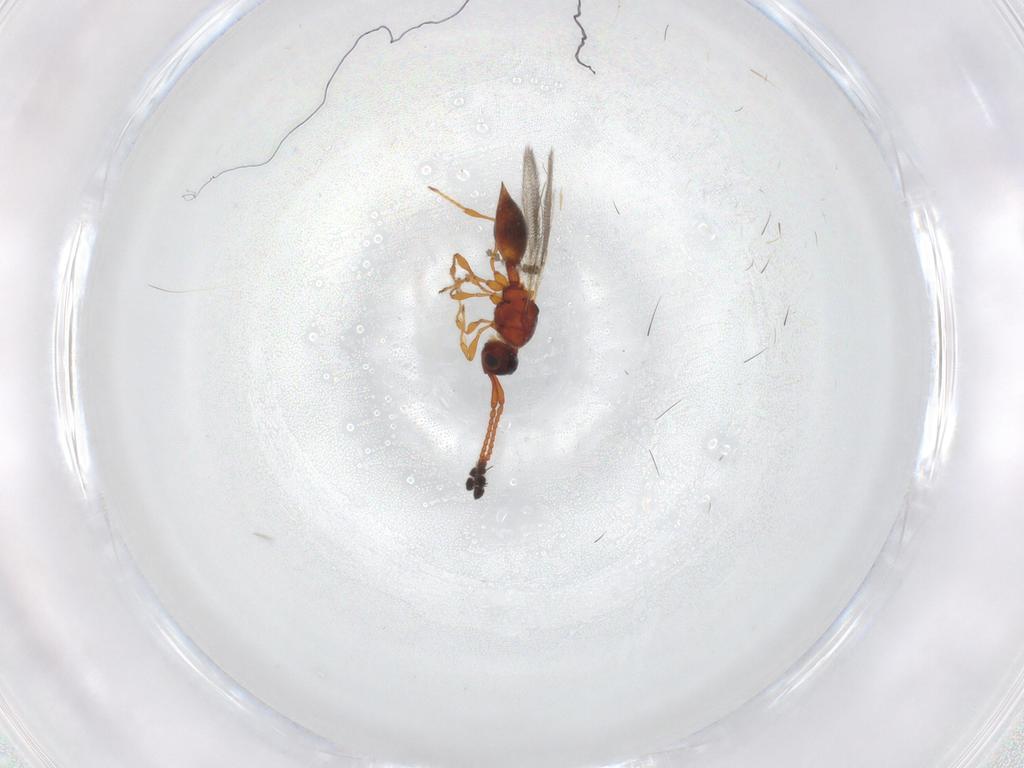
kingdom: Animalia
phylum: Arthropoda
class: Insecta
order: Hymenoptera
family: Diapriidae
